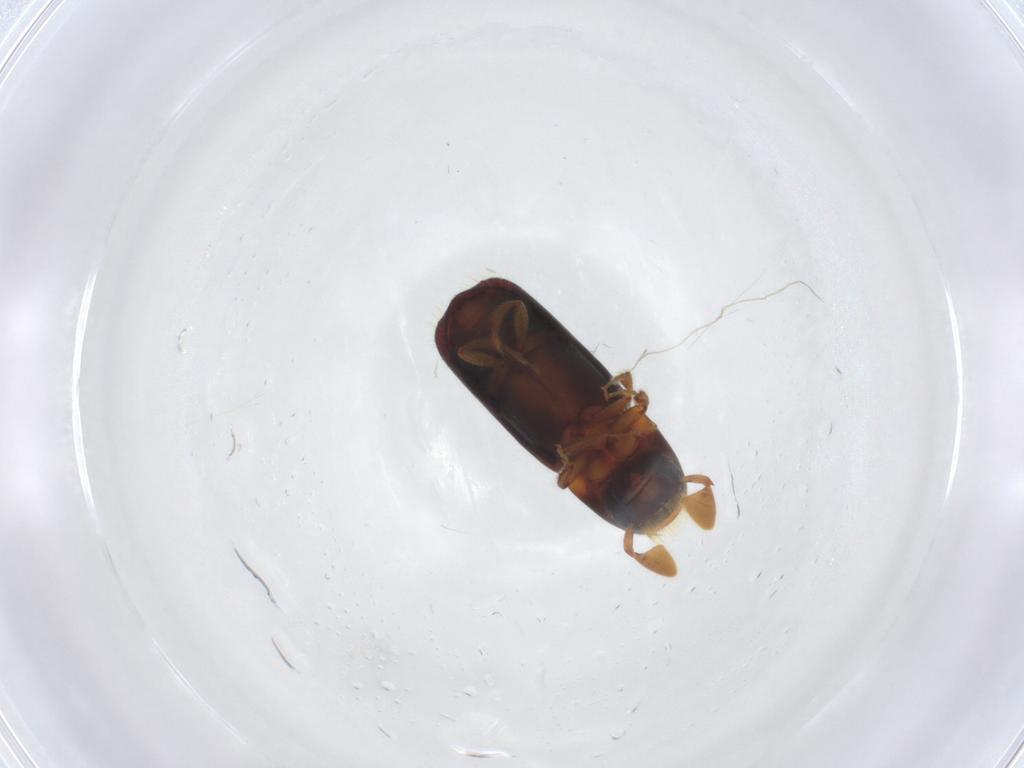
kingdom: Animalia
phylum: Arthropoda
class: Insecta
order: Coleoptera
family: Curculionidae
